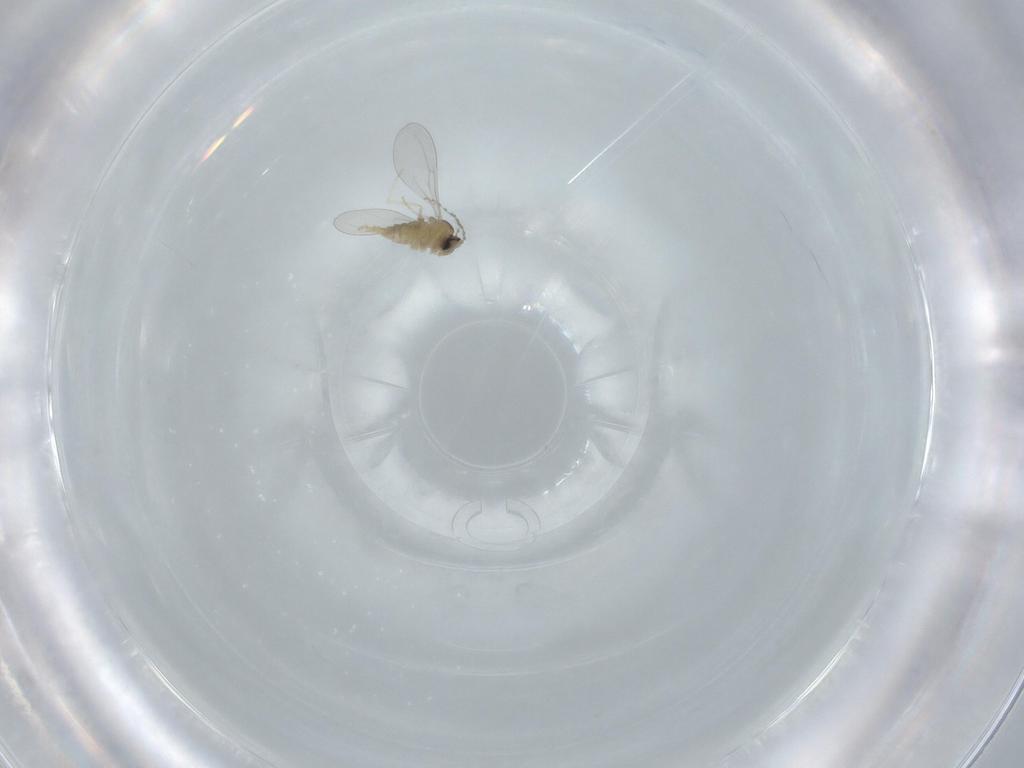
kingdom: Animalia
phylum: Arthropoda
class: Insecta
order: Diptera
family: Cecidomyiidae
